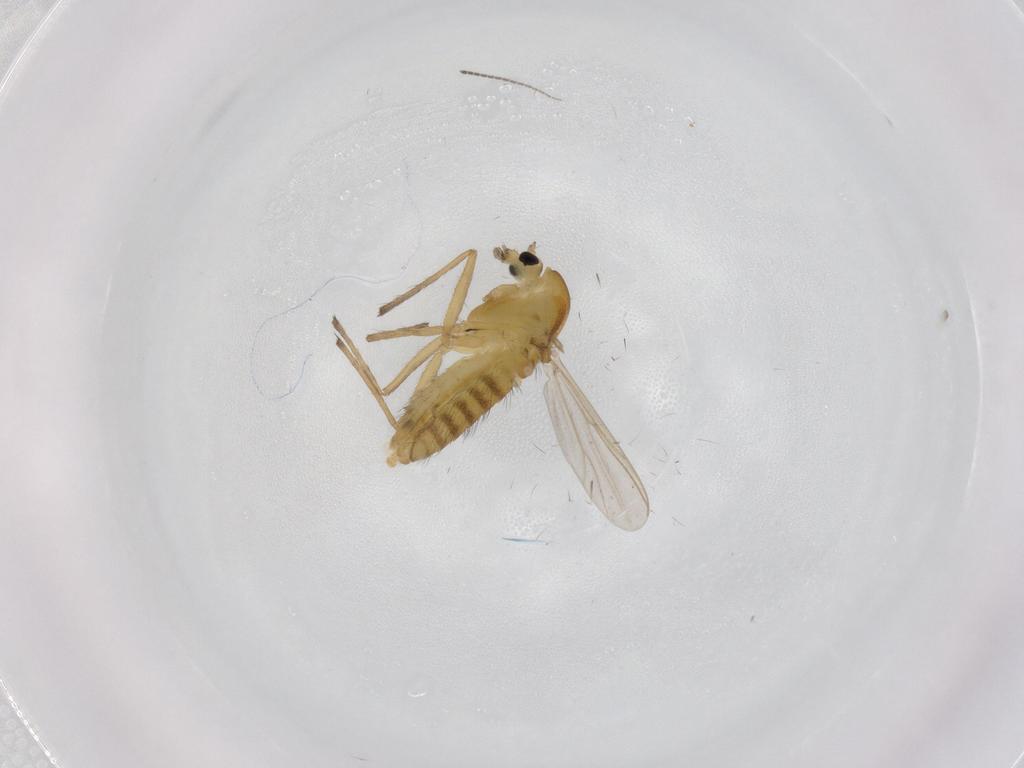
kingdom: Animalia
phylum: Arthropoda
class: Insecta
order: Diptera
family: Chironomidae
